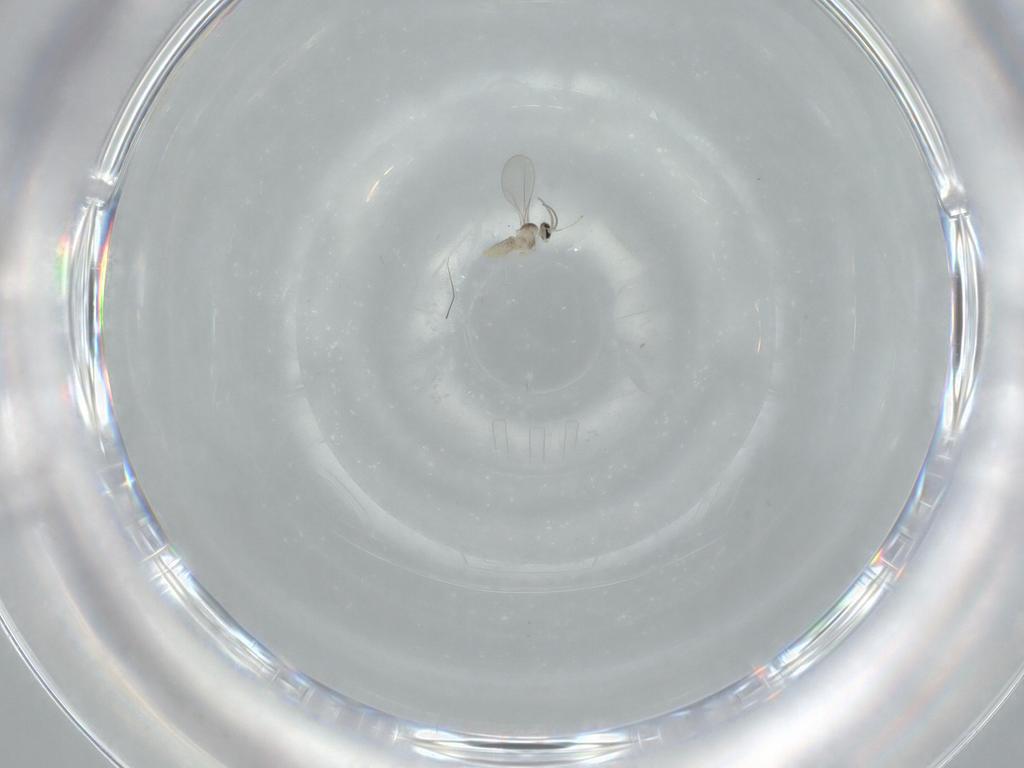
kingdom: Animalia
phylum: Arthropoda
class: Insecta
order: Diptera
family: Cecidomyiidae
